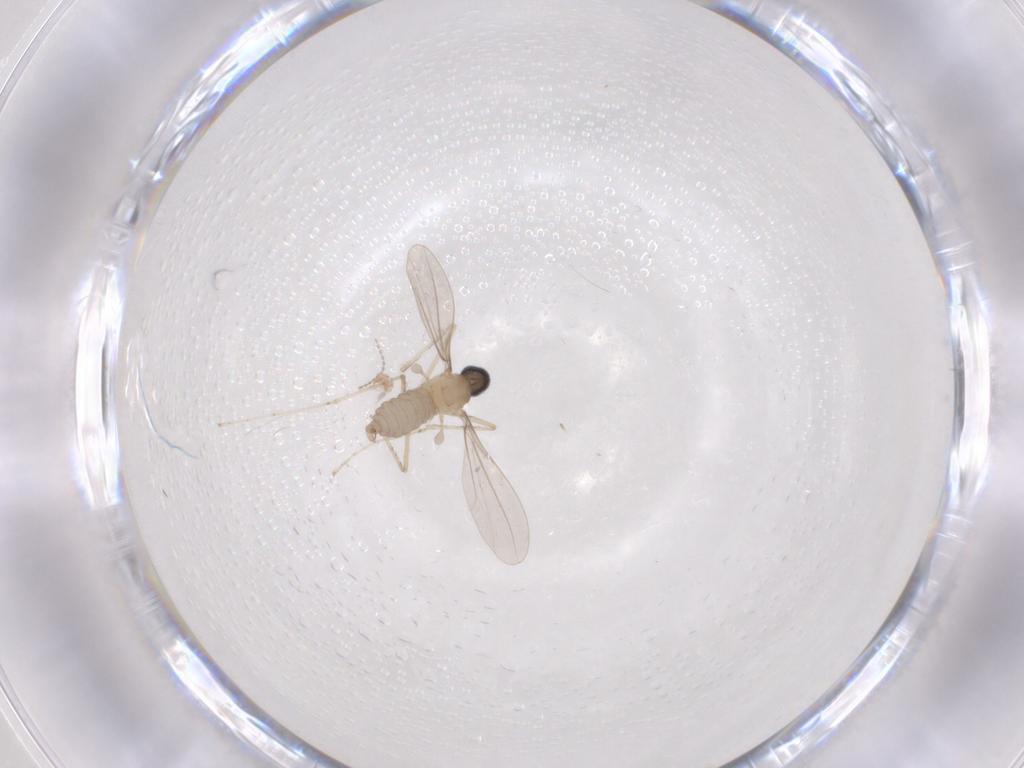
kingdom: Animalia
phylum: Arthropoda
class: Insecta
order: Diptera
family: Cecidomyiidae
